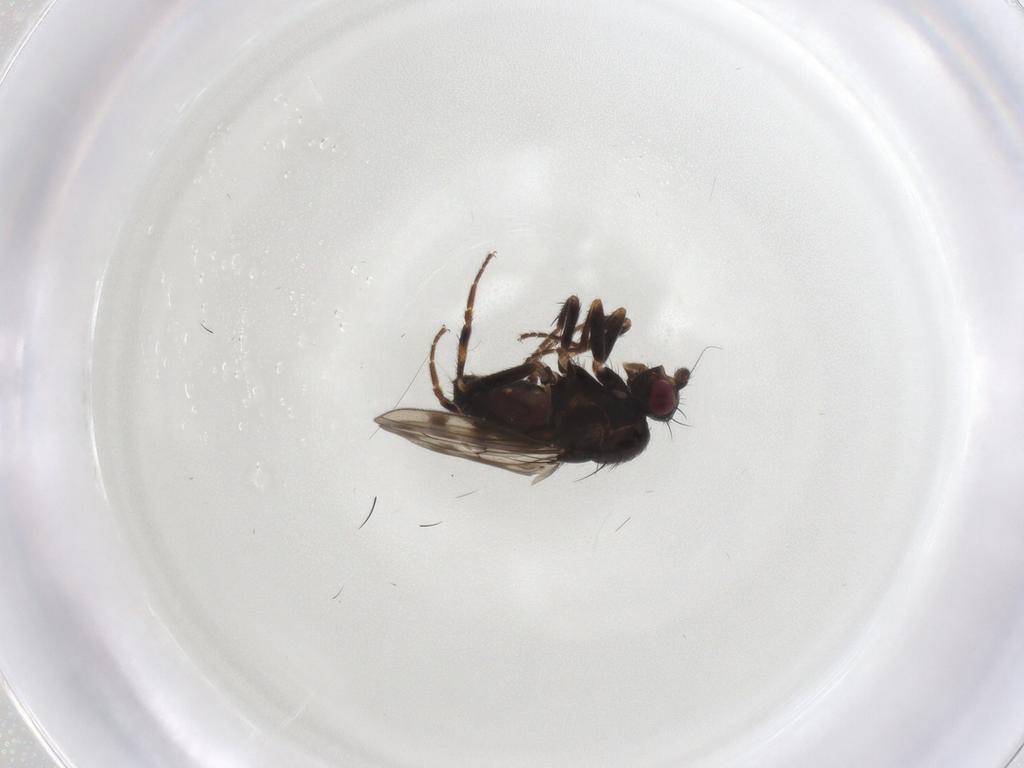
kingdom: Animalia
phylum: Arthropoda
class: Insecta
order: Diptera
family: Sphaeroceridae
